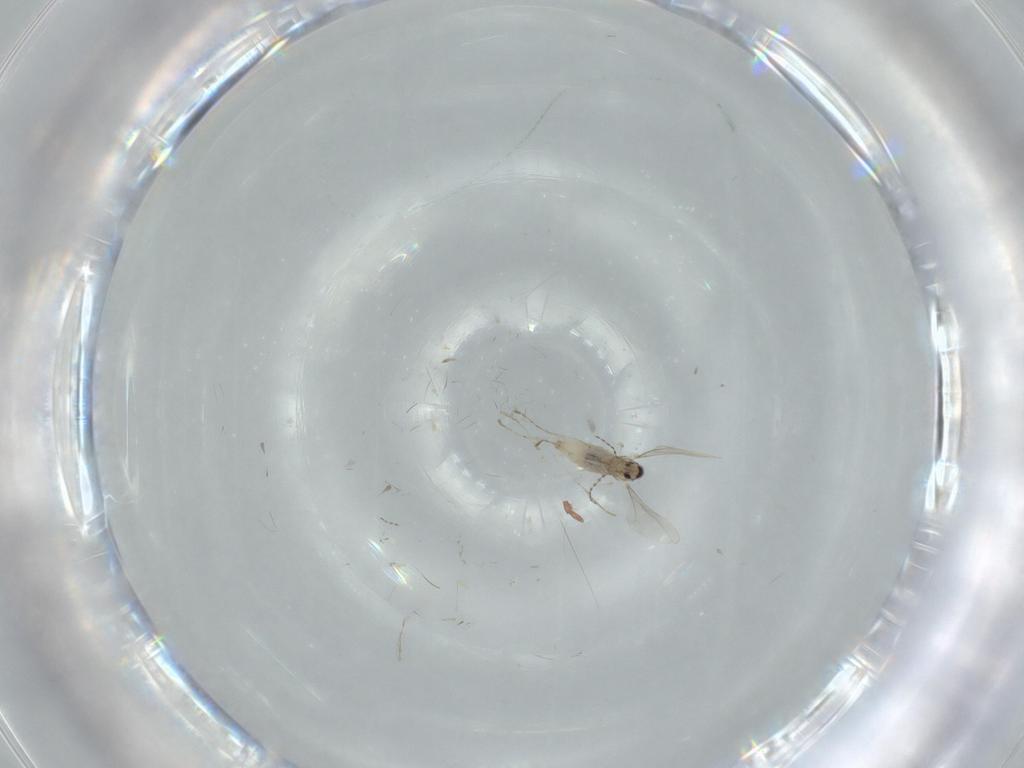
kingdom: Animalia
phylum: Arthropoda
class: Insecta
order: Diptera
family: Cecidomyiidae
